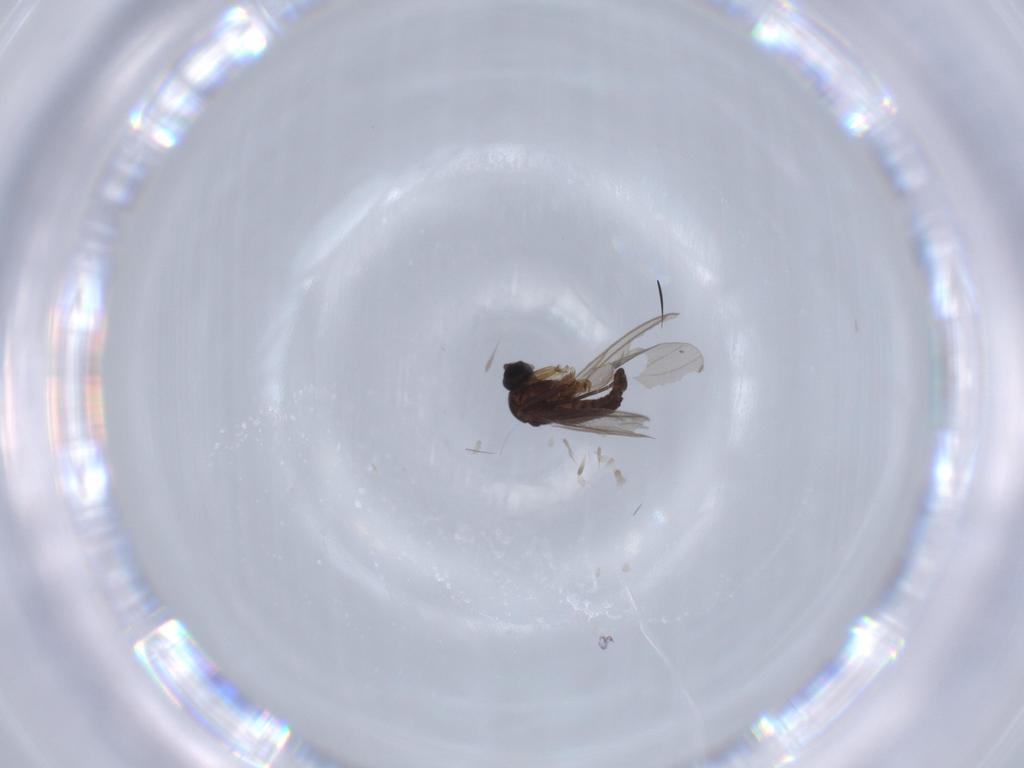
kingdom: Animalia
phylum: Arthropoda
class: Insecta
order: Diptera
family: Sciaridae
